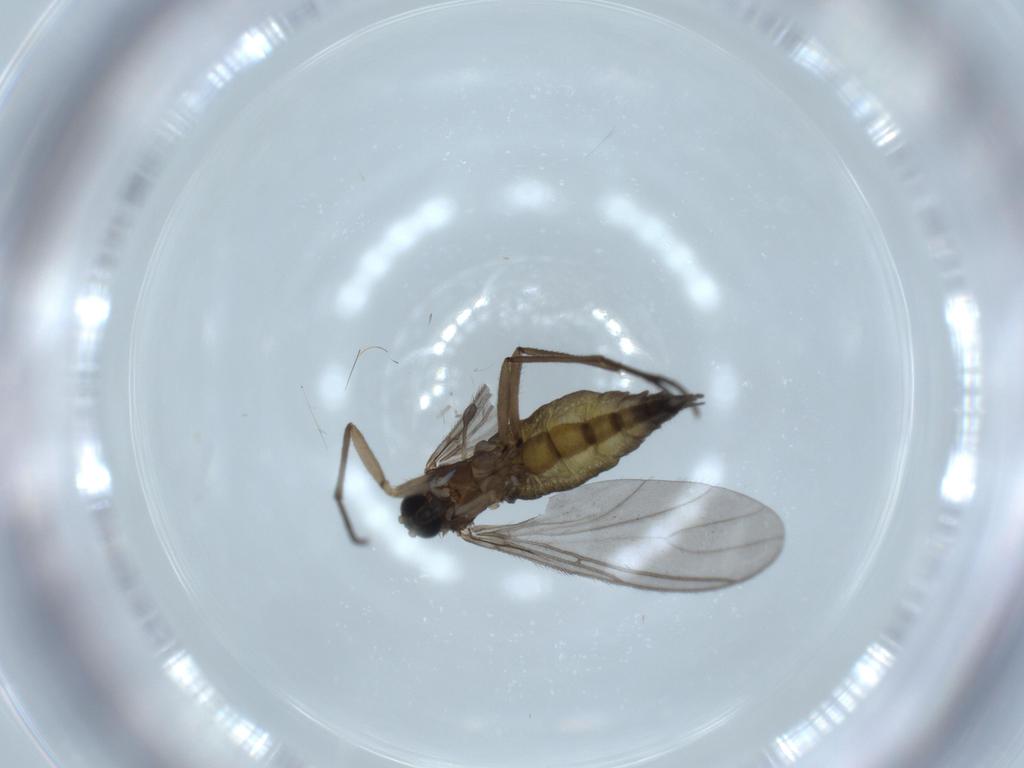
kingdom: Animalia
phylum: Arthropoda
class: Insecta
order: Diptera
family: Sciaridae
